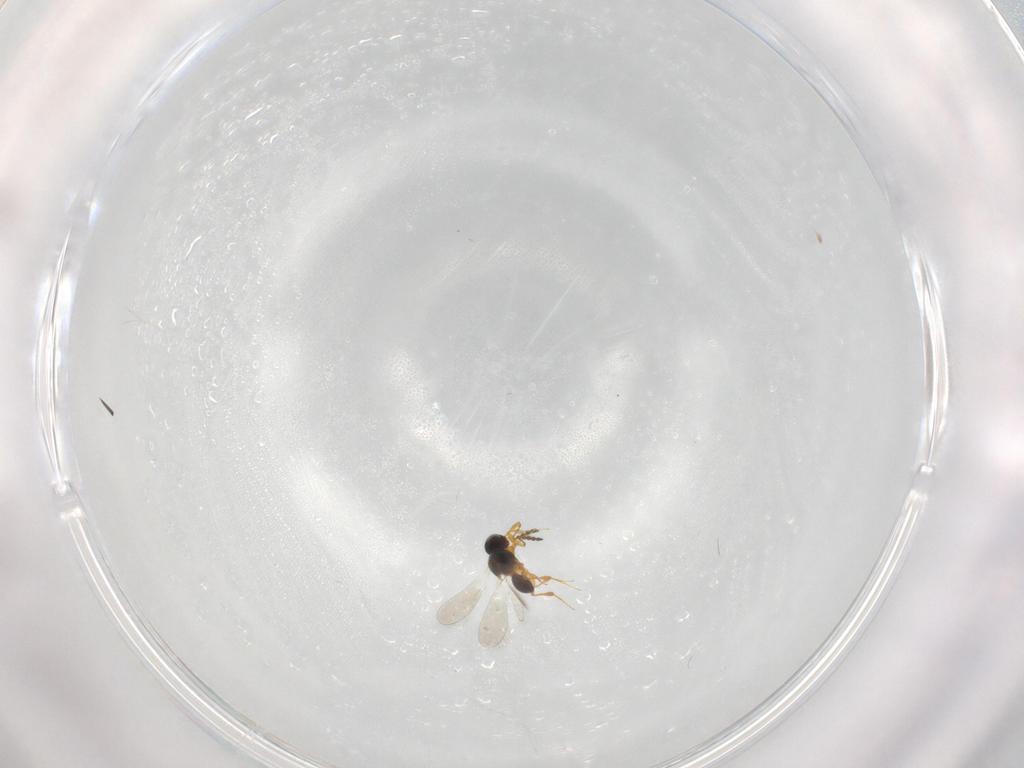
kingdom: Animalia
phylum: Arthropoda
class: Insecta
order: Hymenoptera
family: Platygastridae
